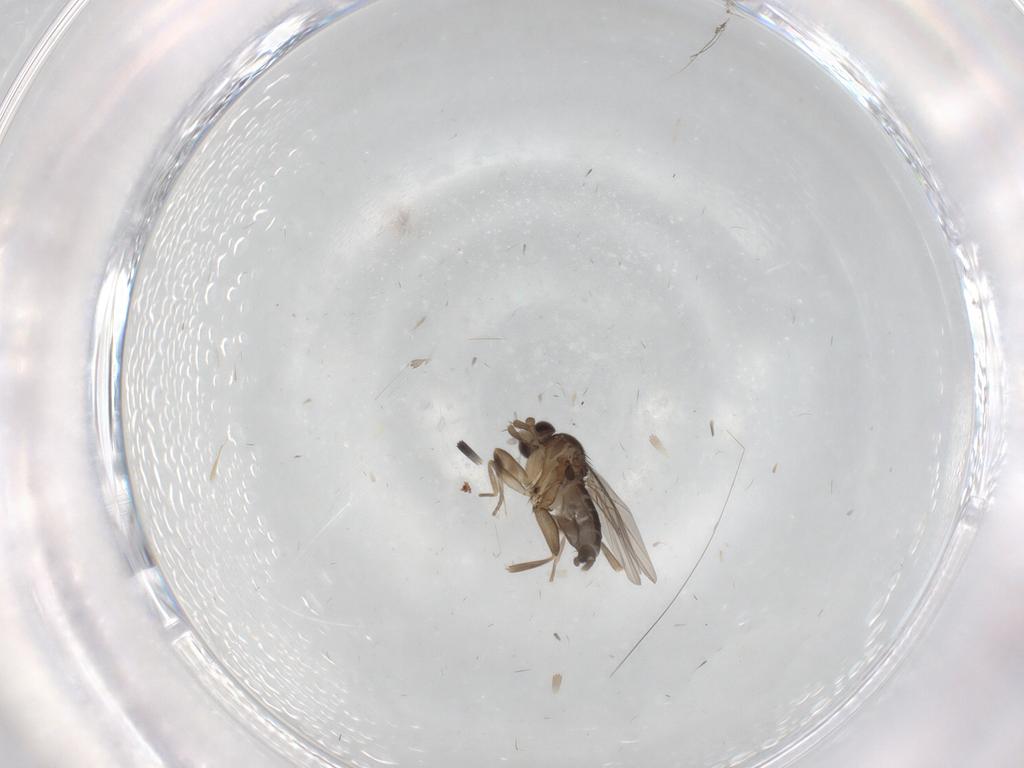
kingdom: Animalia
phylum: Arthropoda
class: Insecta
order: Diptera
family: Phoridae
